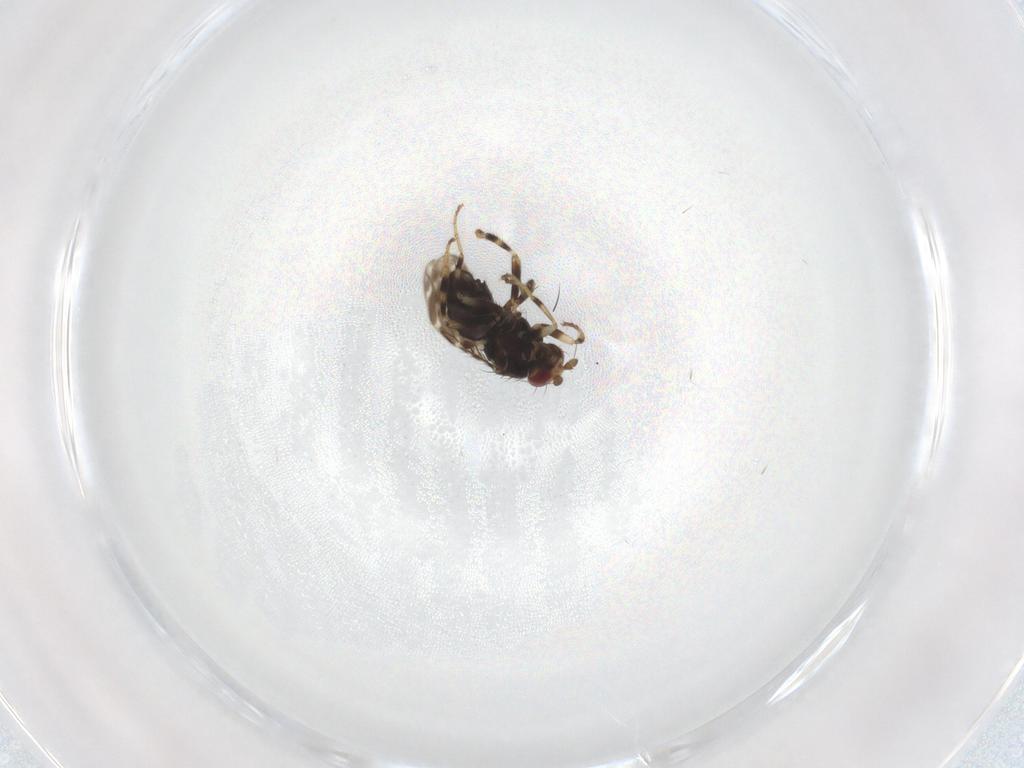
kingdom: Animalia
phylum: Arthropoda
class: Insecta
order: Diptera
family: Sphaeroceridae
